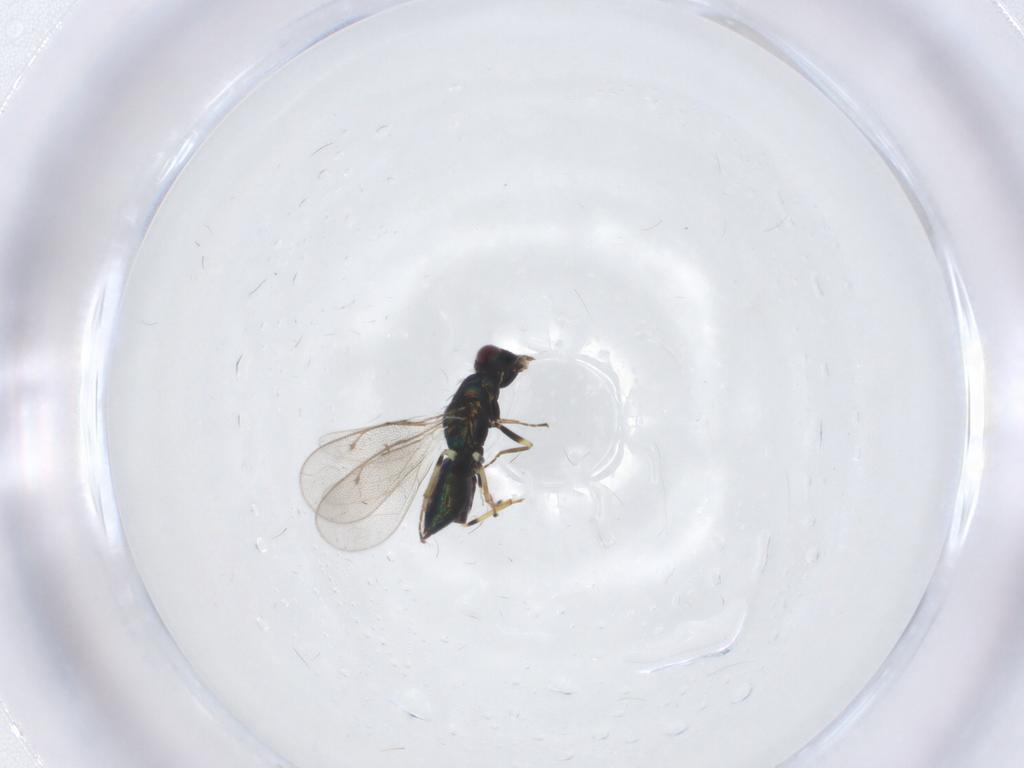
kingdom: Animalia
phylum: Arthropoda
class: Insecta
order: Hymenoptera
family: Eulophidae
